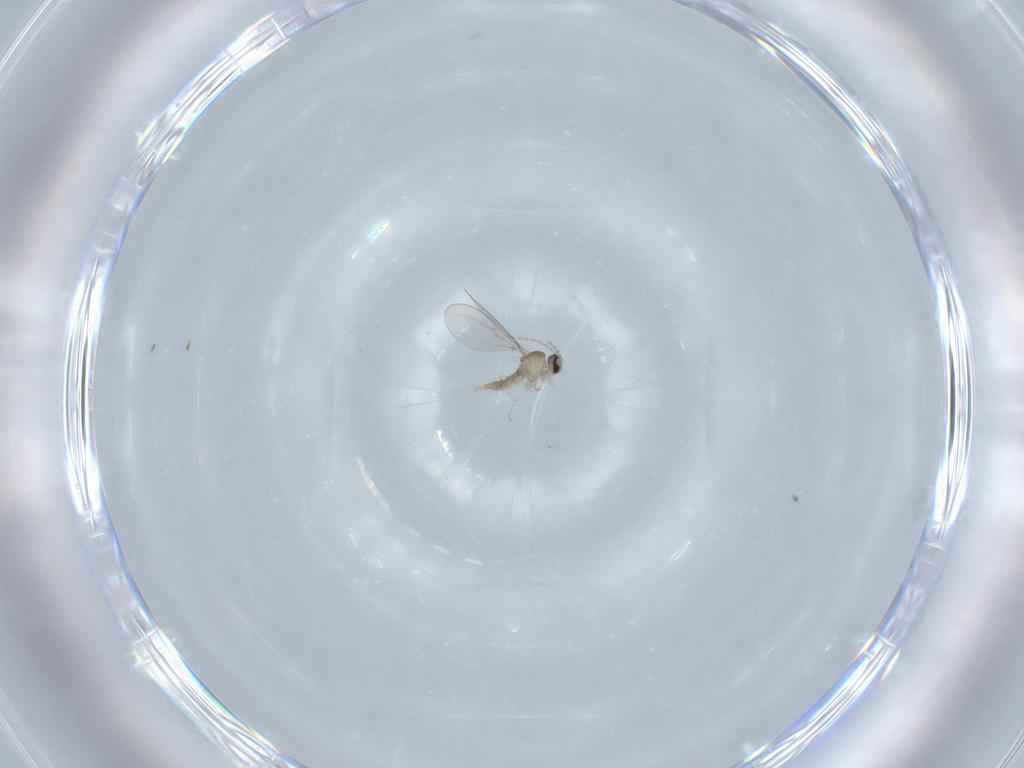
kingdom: Animalia
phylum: Arthropoda
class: Insecta
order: Diptera
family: Cecidomyiidae
